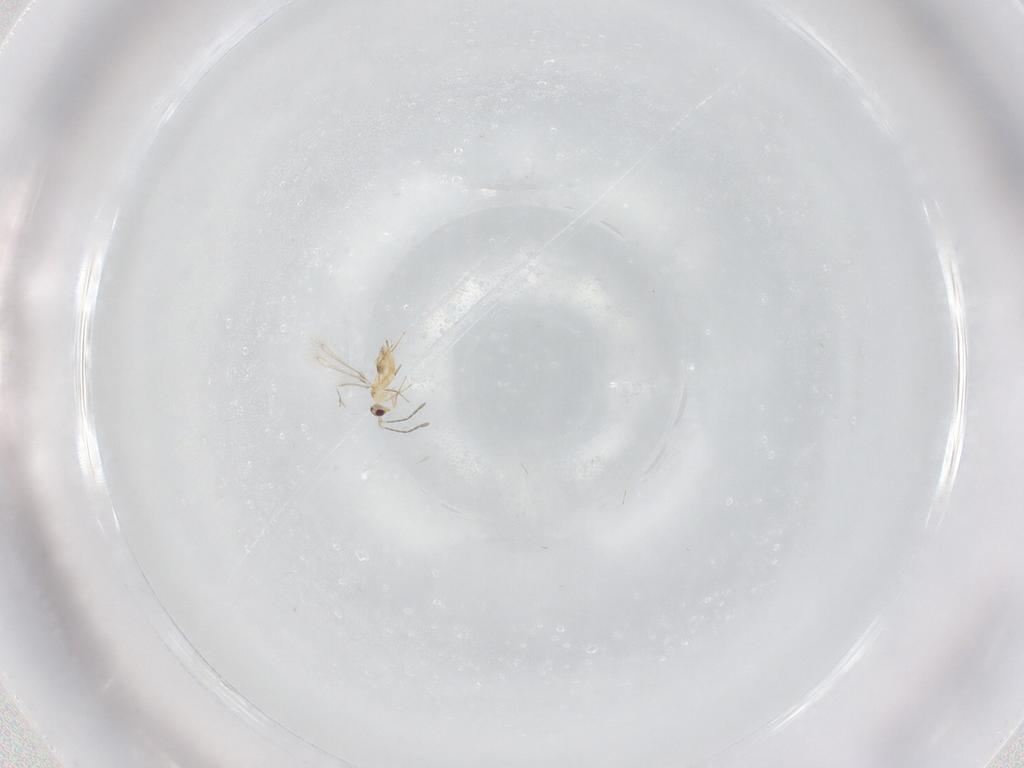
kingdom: Animalia
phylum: Arthropoda
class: Insecta
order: Hymenoptera
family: Mymaridae
